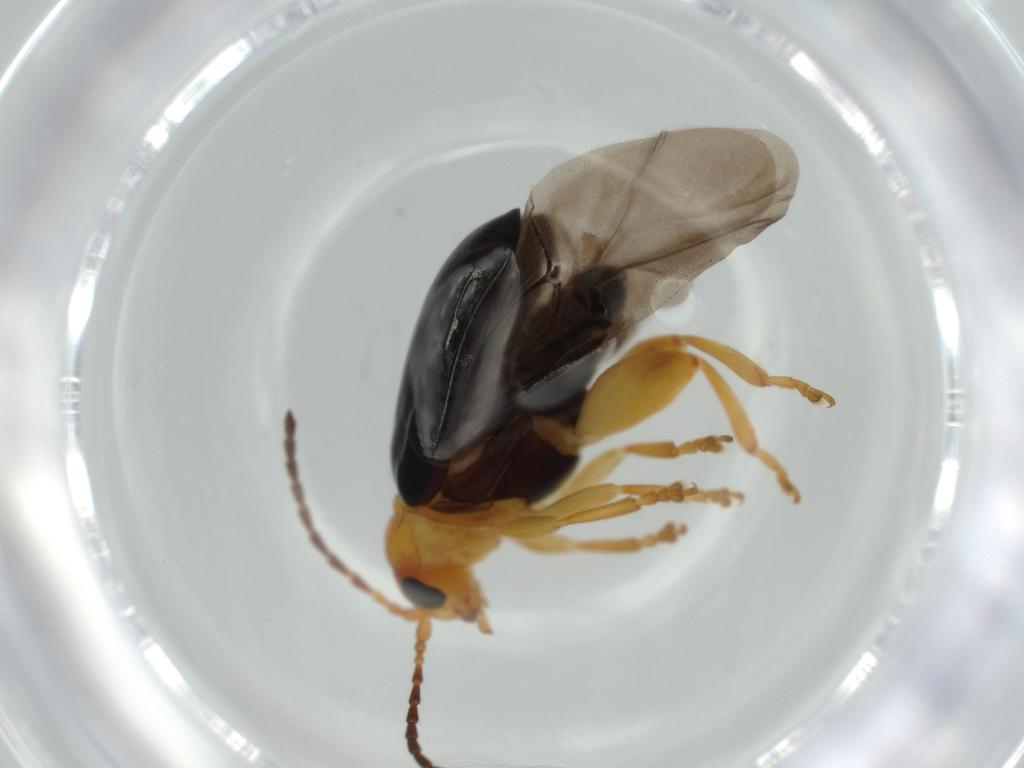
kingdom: Animalia
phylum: Arthropoda
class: Insecta
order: Coleoptera
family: Chrysomelidae
